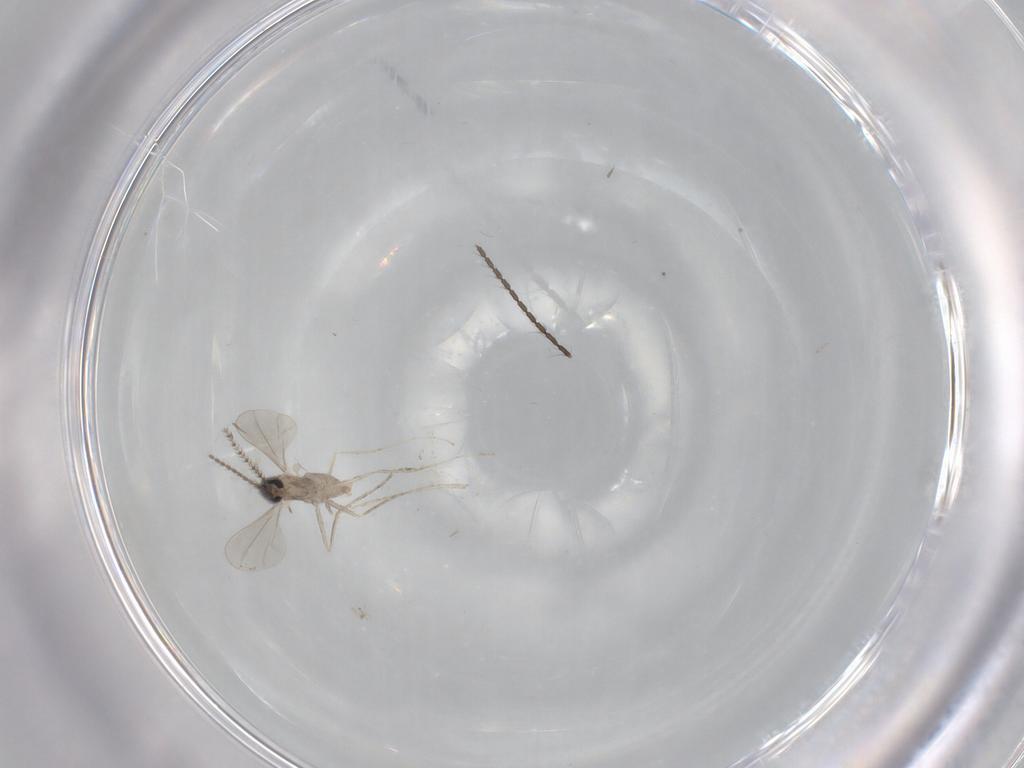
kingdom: Animalia
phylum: Arthropoda
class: Insecta
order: Diptera
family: Cecidomyiidae
